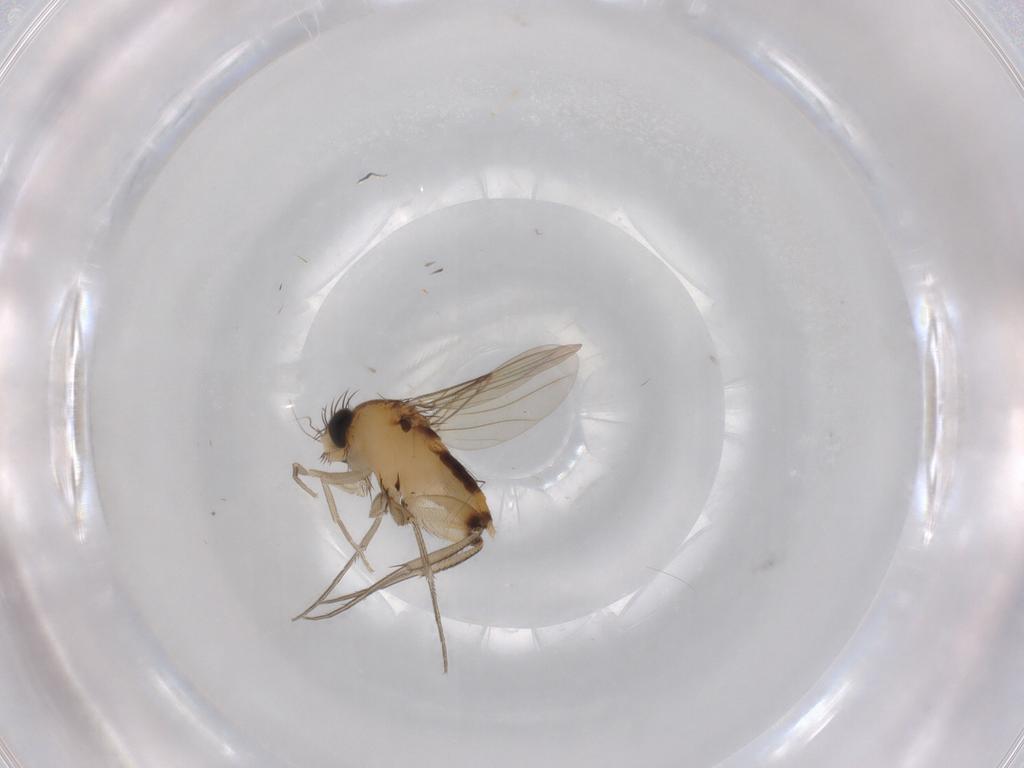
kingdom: Animalia
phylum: Arthropoda
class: Insecta
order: Diptera
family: Phoridae
